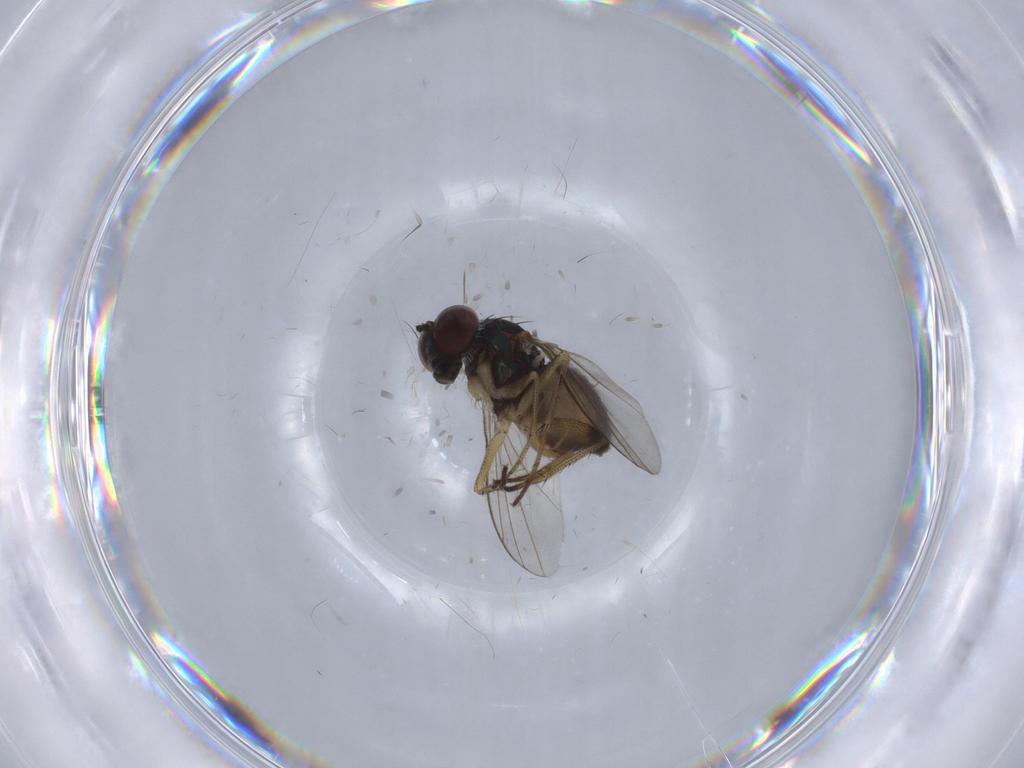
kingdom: Animalia
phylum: Arthropoda
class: Insecta
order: Diptera
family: Dolichopodidae
